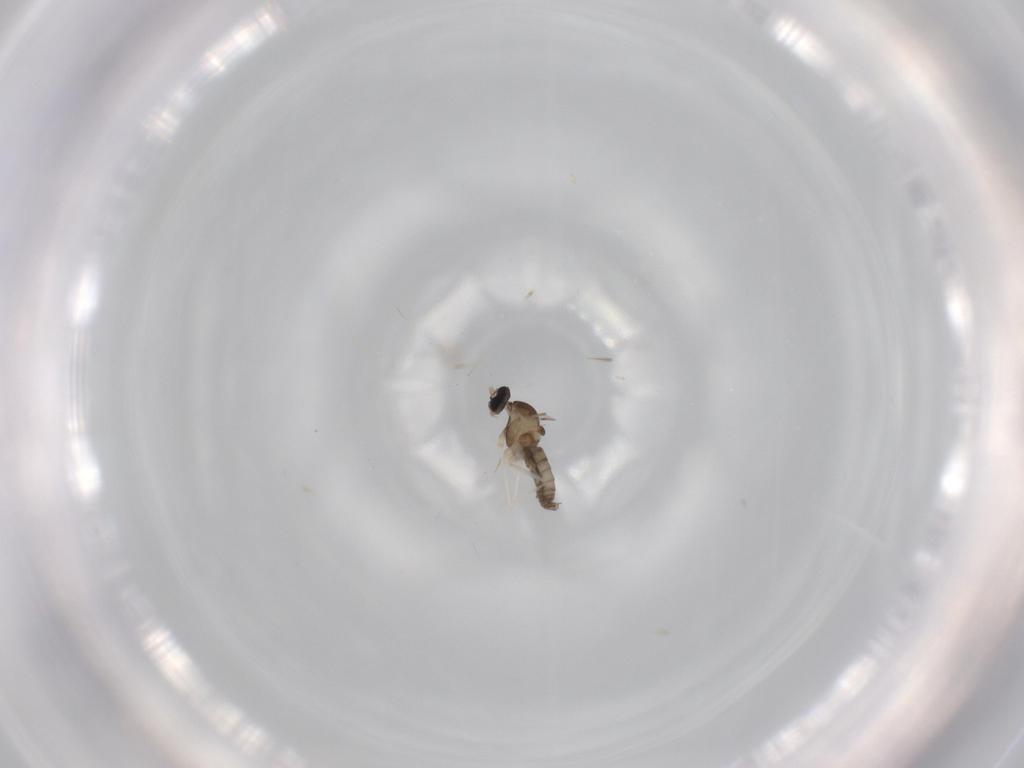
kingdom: Animalia
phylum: Arthropoda
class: Insecta
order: Diptera
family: Cecidomyiidae
